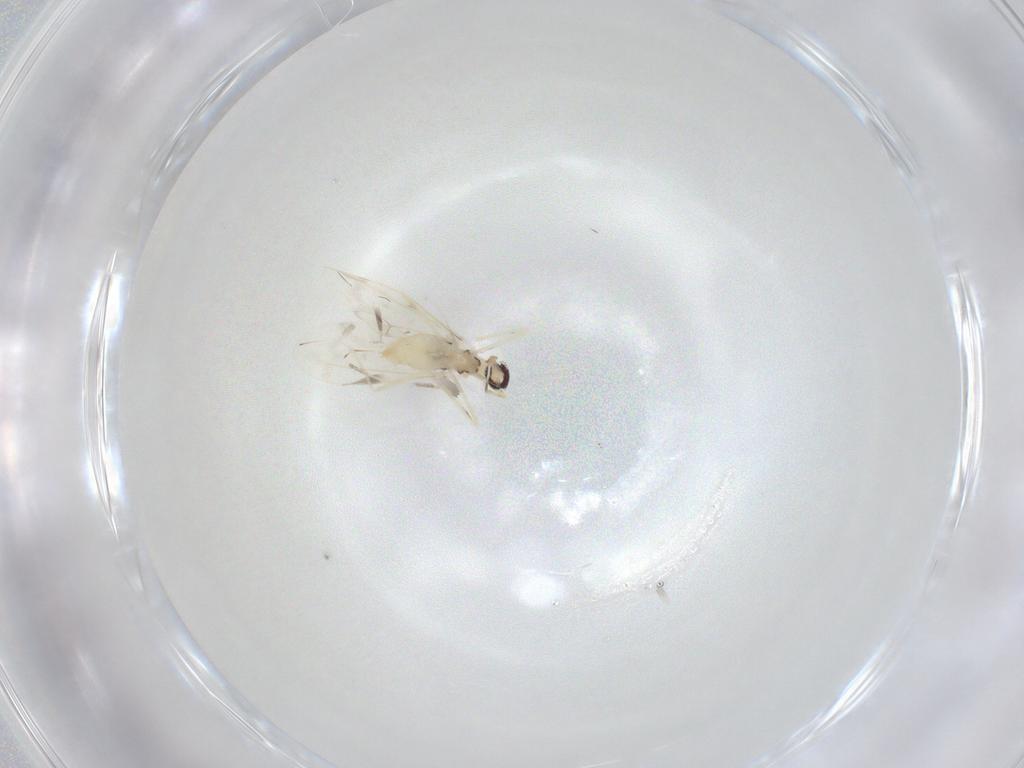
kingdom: Animalia
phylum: Arthropoda
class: Insecta
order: Diptera
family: Cecidomyiidae
